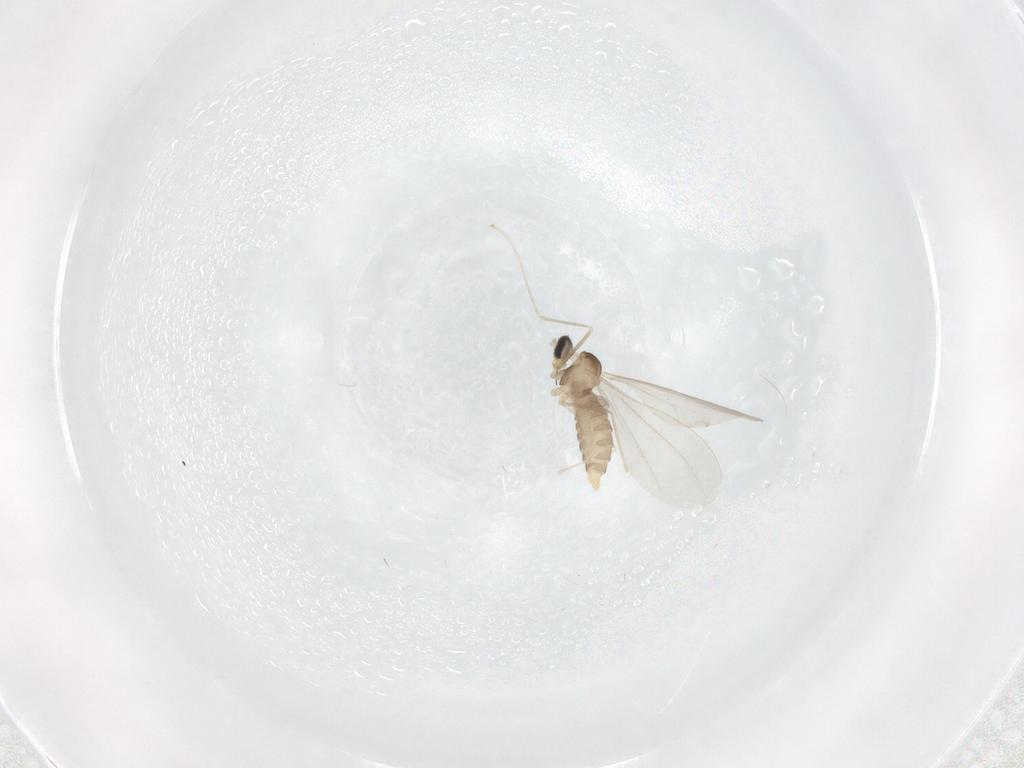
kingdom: Animalia
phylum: Arthropoda
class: Insecta
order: Diptera
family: Cecidomyiidae
